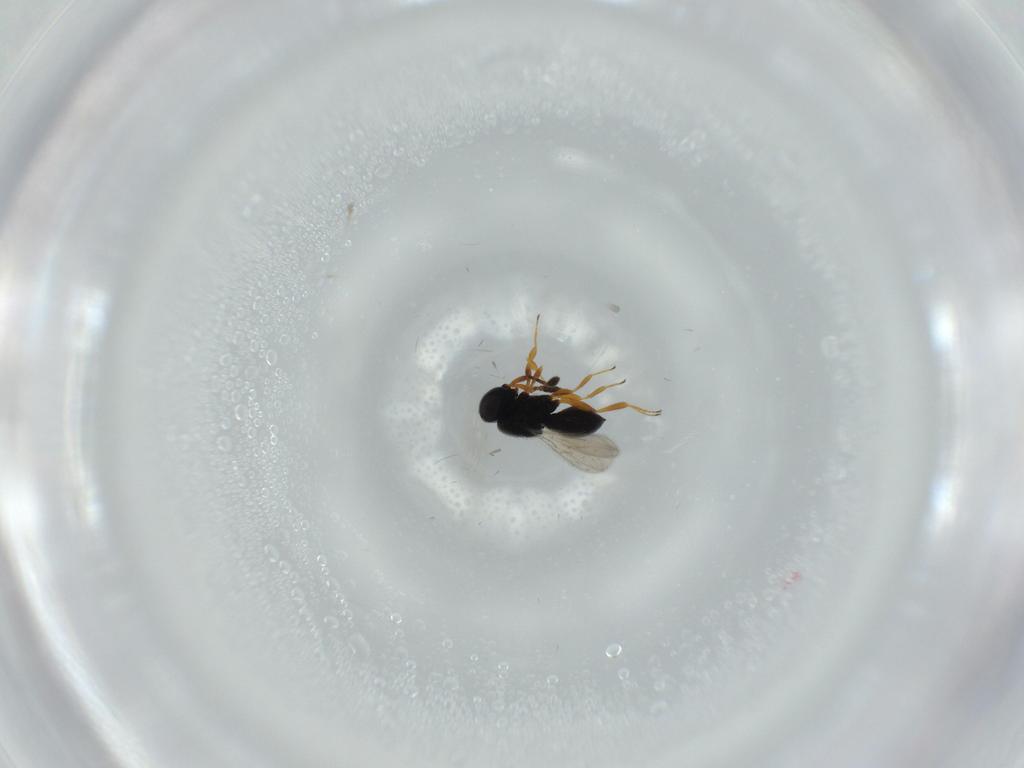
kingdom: Animalia
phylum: Arthropoda
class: Insecta
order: Hymenoptera
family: Scelionidae
